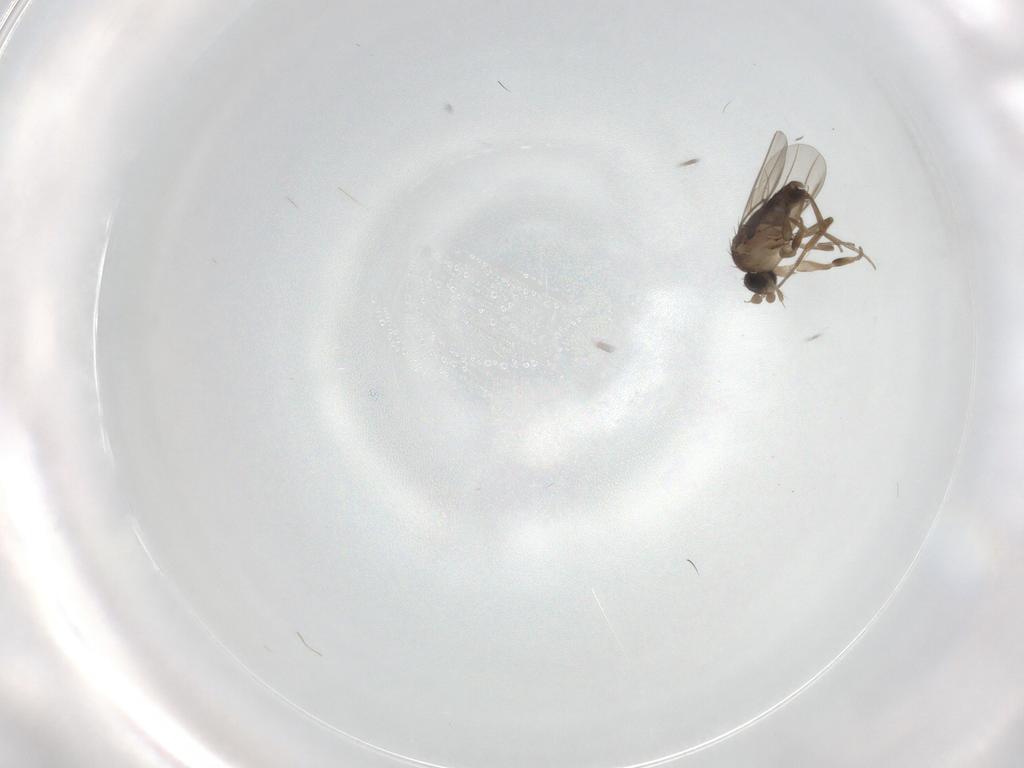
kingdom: Animalia
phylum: Arthropoda
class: Insecta
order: Diptera
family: Phoridae
